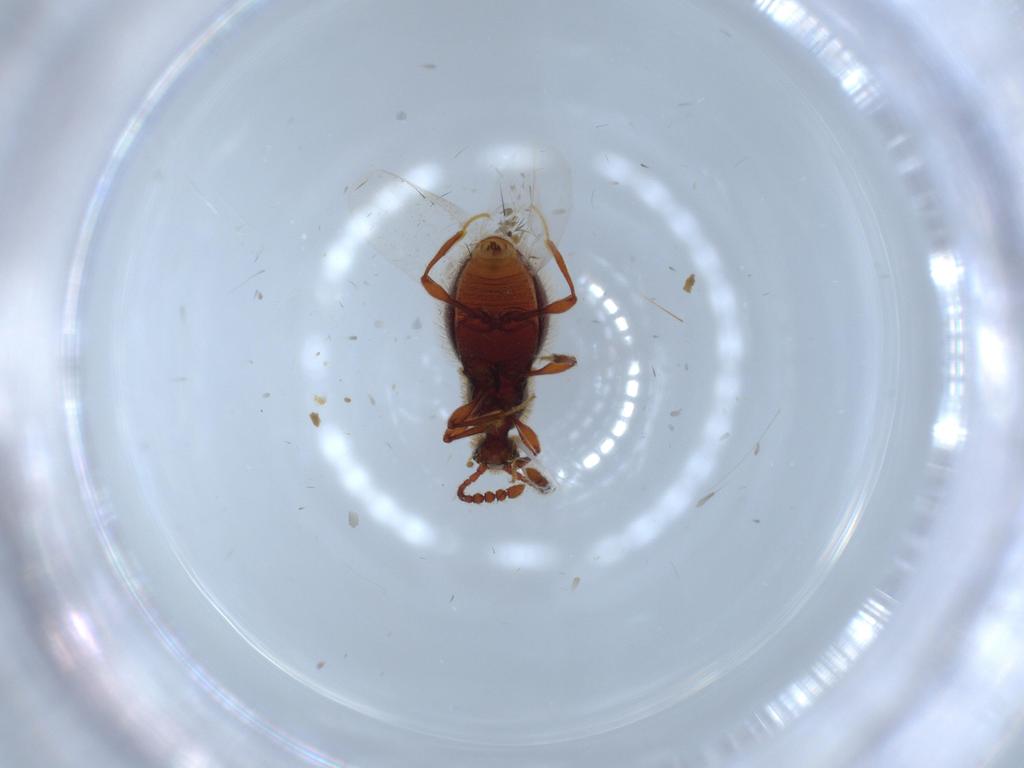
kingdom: Animalia
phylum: Arthropoda
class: Insecta
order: Coleoptera
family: Staphylinidae
